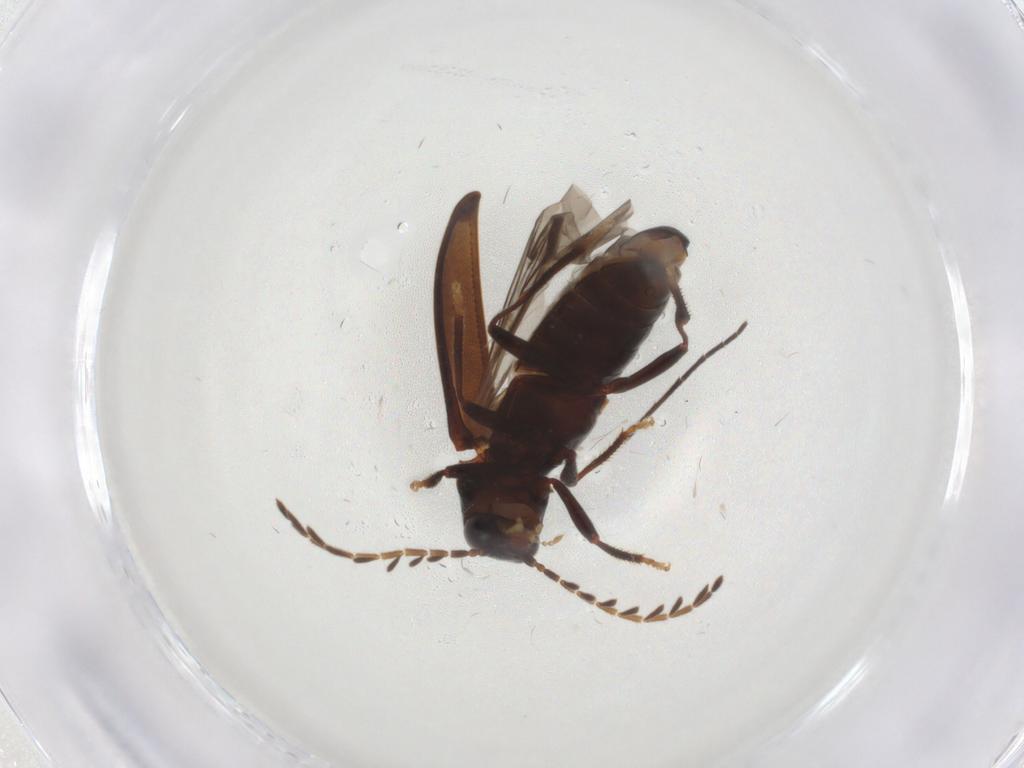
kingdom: Animalia
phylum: Arthropoda
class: Insecta
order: Coleoptera
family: Ptilodactylidae
